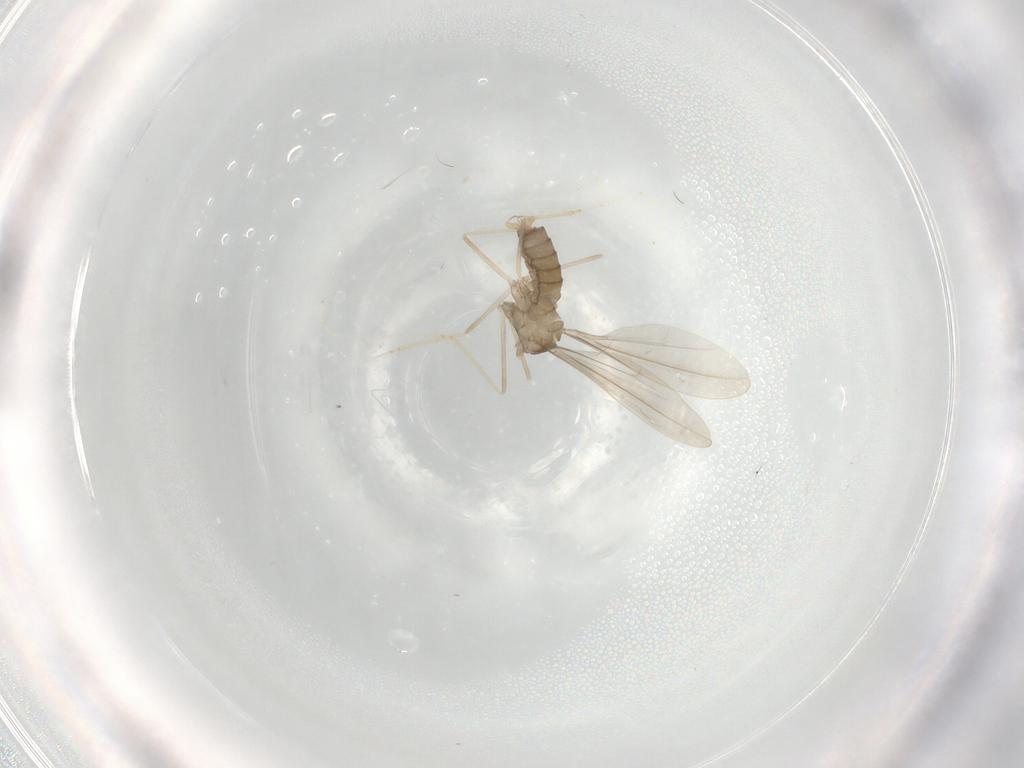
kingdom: Animalia
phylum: Arthropoda
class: Insecta
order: Diptera
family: Cecidomyiidae
